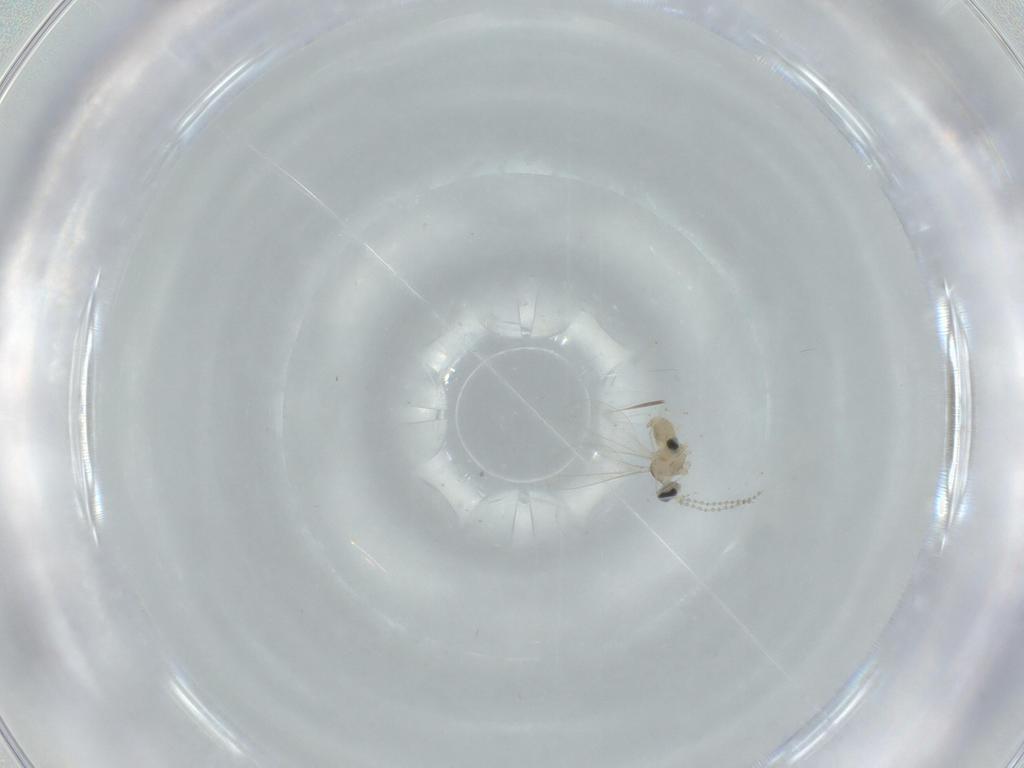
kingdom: Animalia
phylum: Arthropoda
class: Insecta
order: Diptera
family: Cecidomyiidae
